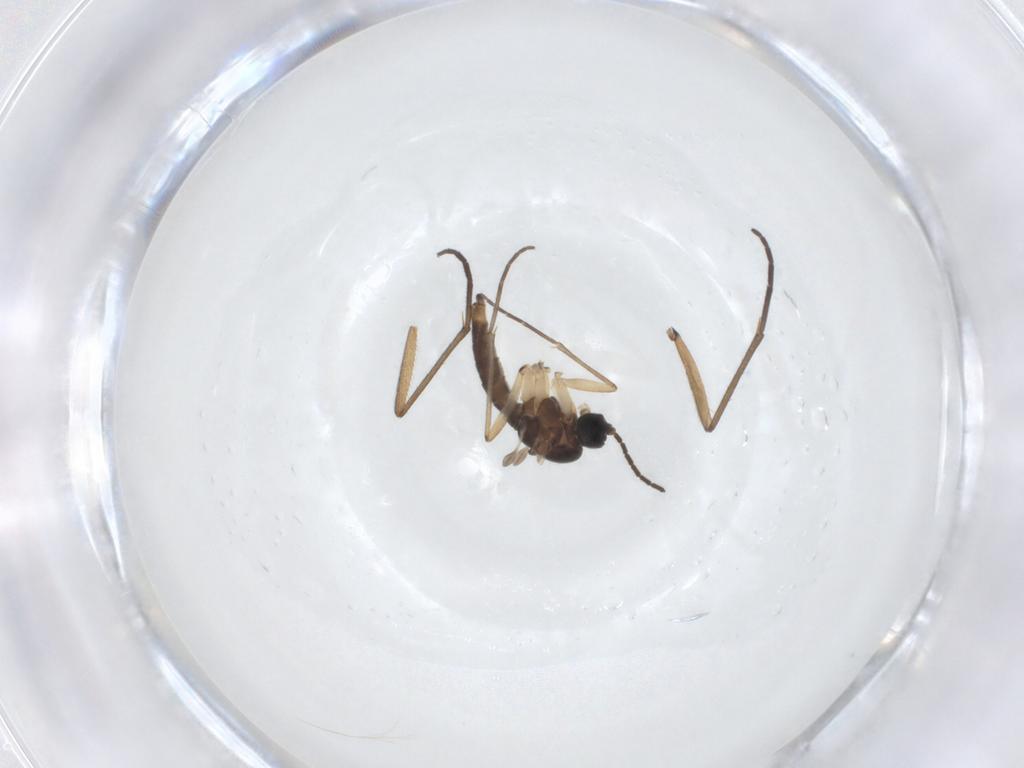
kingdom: Animalia
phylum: Arthropoda
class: Insecta
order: Diptera
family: Sciaridae
